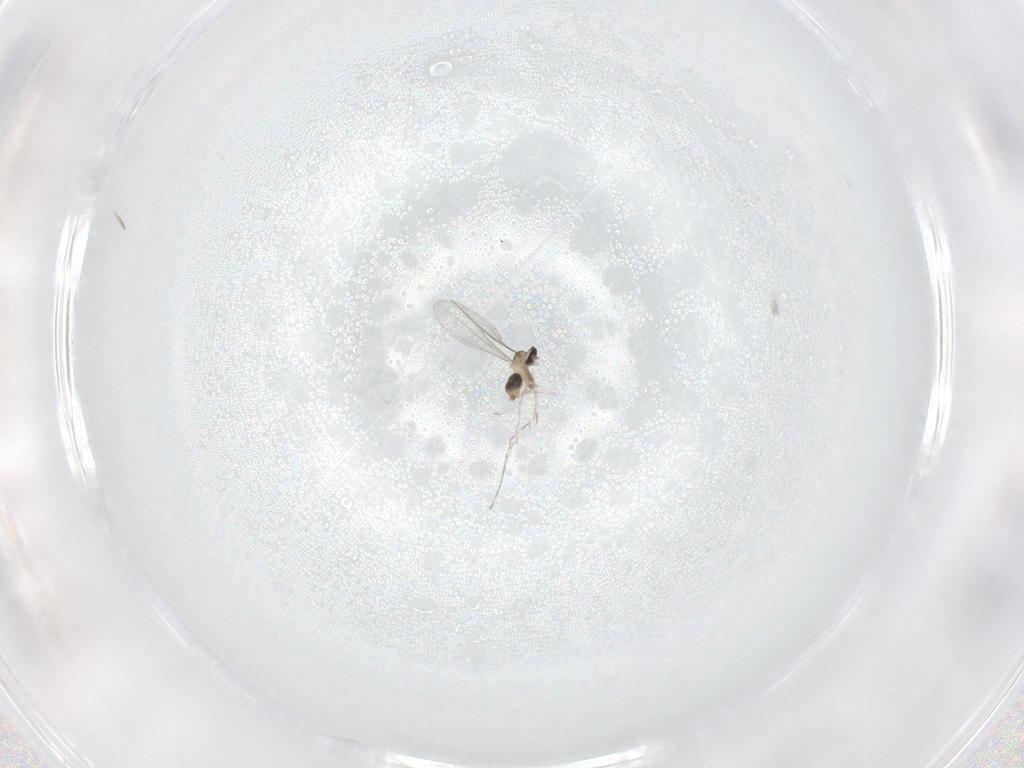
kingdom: Animalia
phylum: Arthropoda
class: Insecta
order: Diptera
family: Cecidomyiidae
